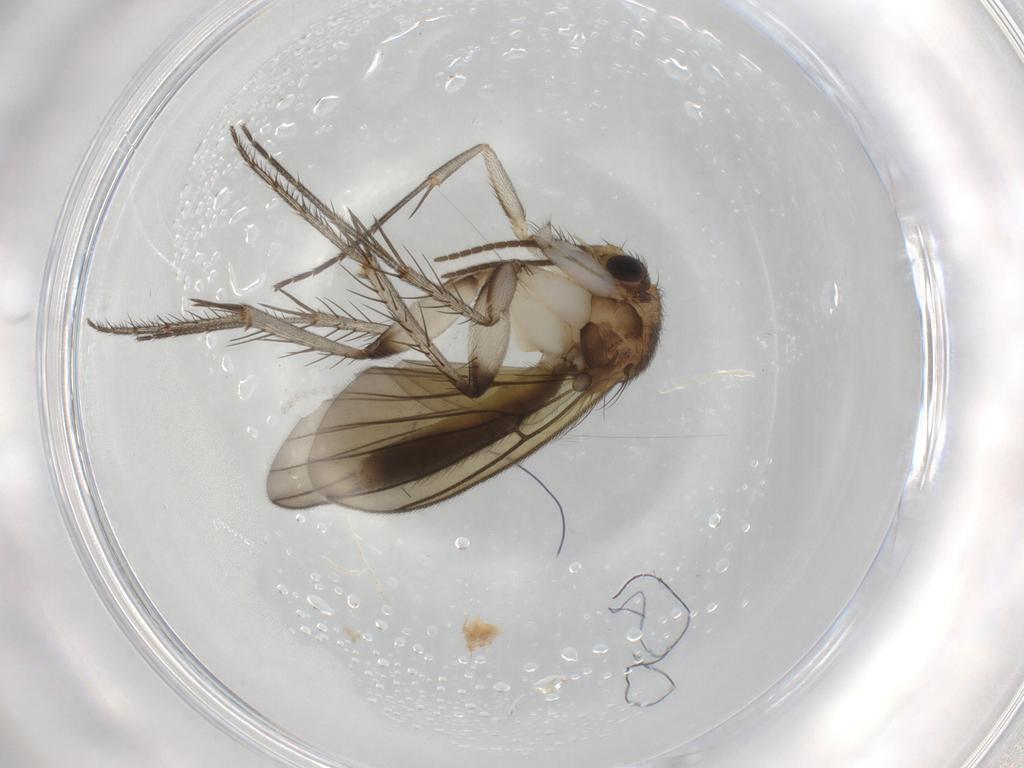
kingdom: Animalia
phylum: Arthropoda
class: Insecta
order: Diptera
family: Mycetophilidae
